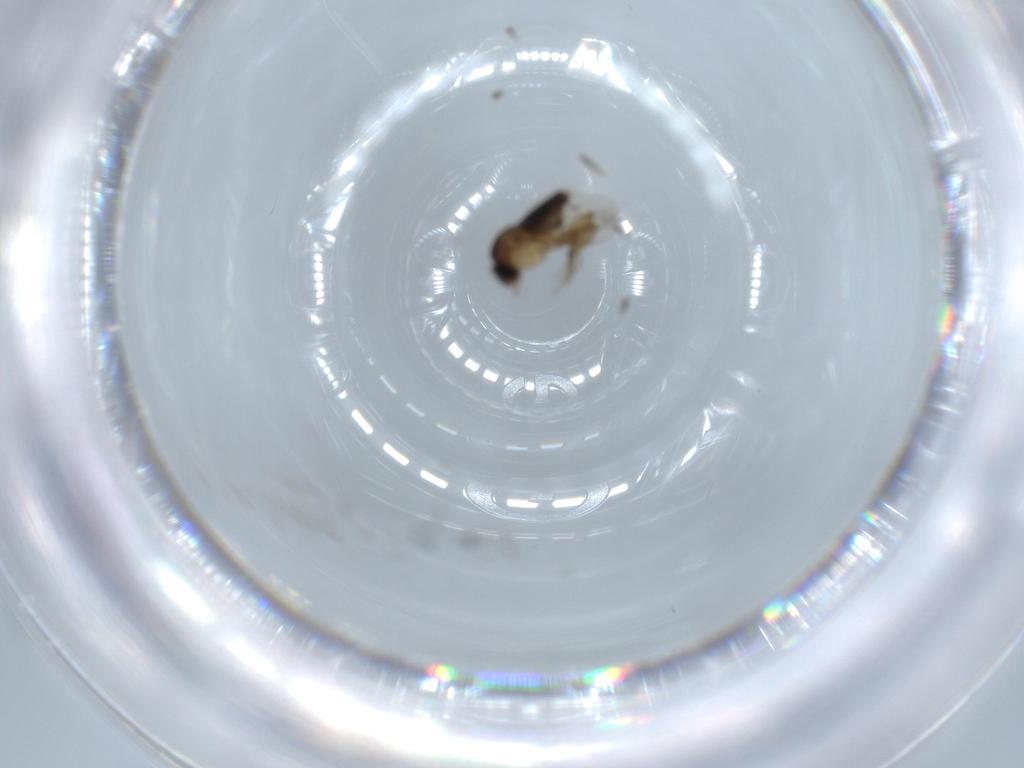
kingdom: Animalia
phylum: Arthropoda
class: Insecta
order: Diptera
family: Phoridae
